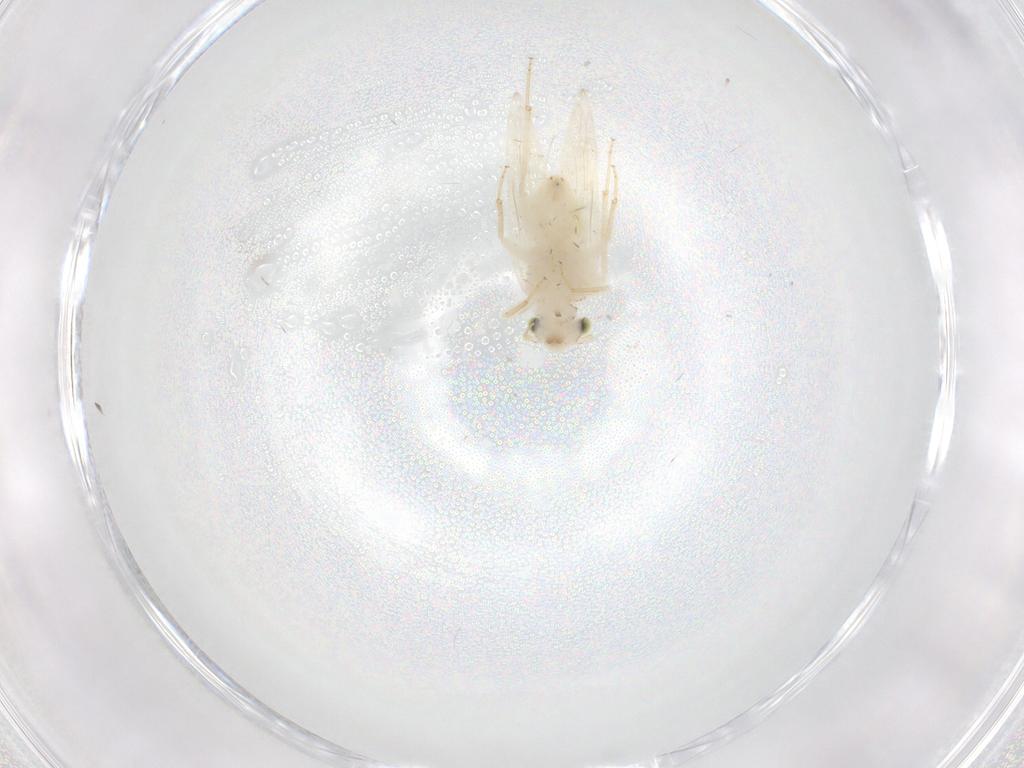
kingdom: Animalia
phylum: Arthropoda
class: Insecta
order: Psocodea
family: Lepidopsocidae
